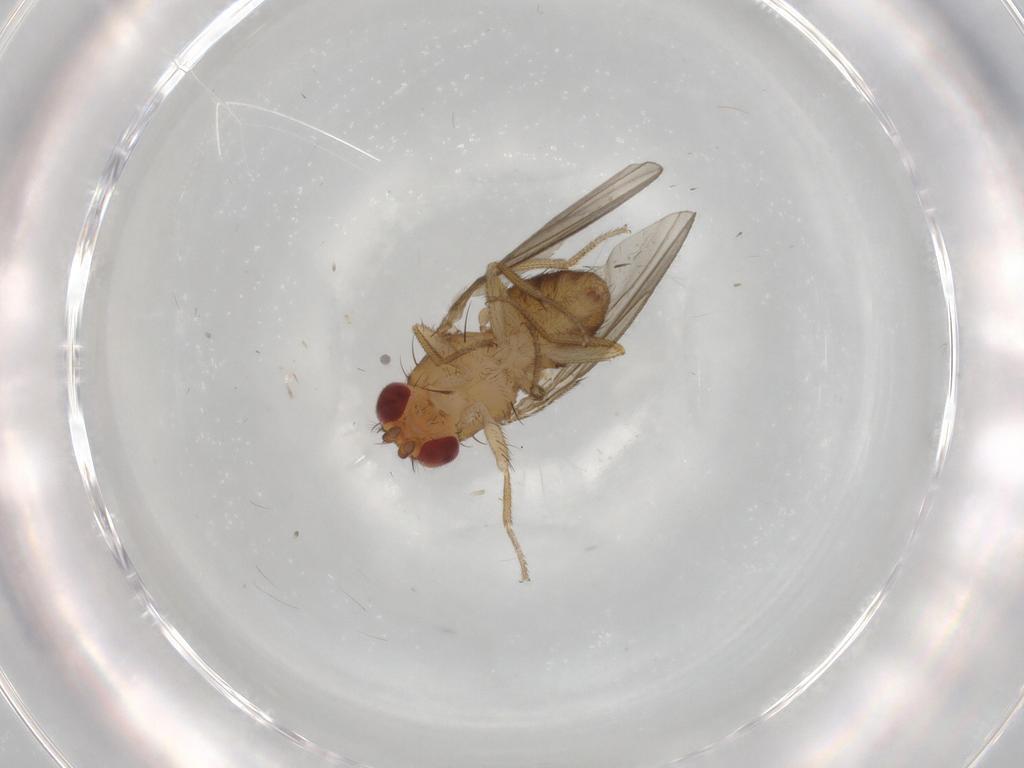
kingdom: Animalia
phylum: Arthropoda
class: Insecta
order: Diptera
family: Drosophilidae
